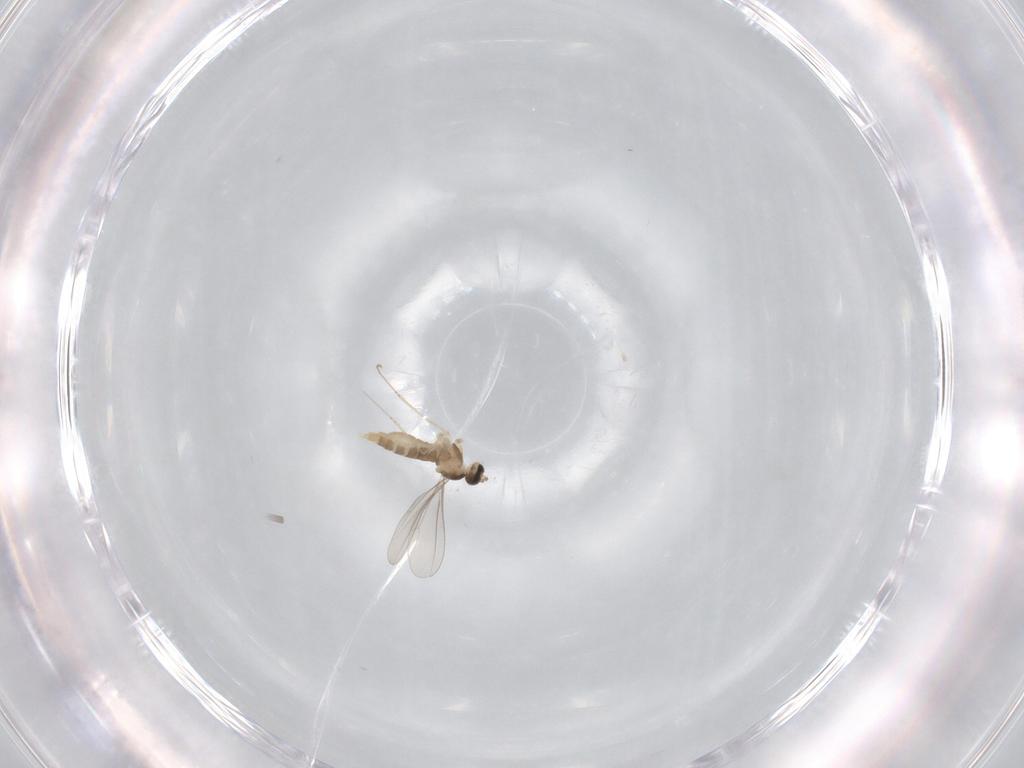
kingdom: Animalia
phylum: Arthropoda
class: Insecta
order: Diptera
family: Cecidomyiidae
